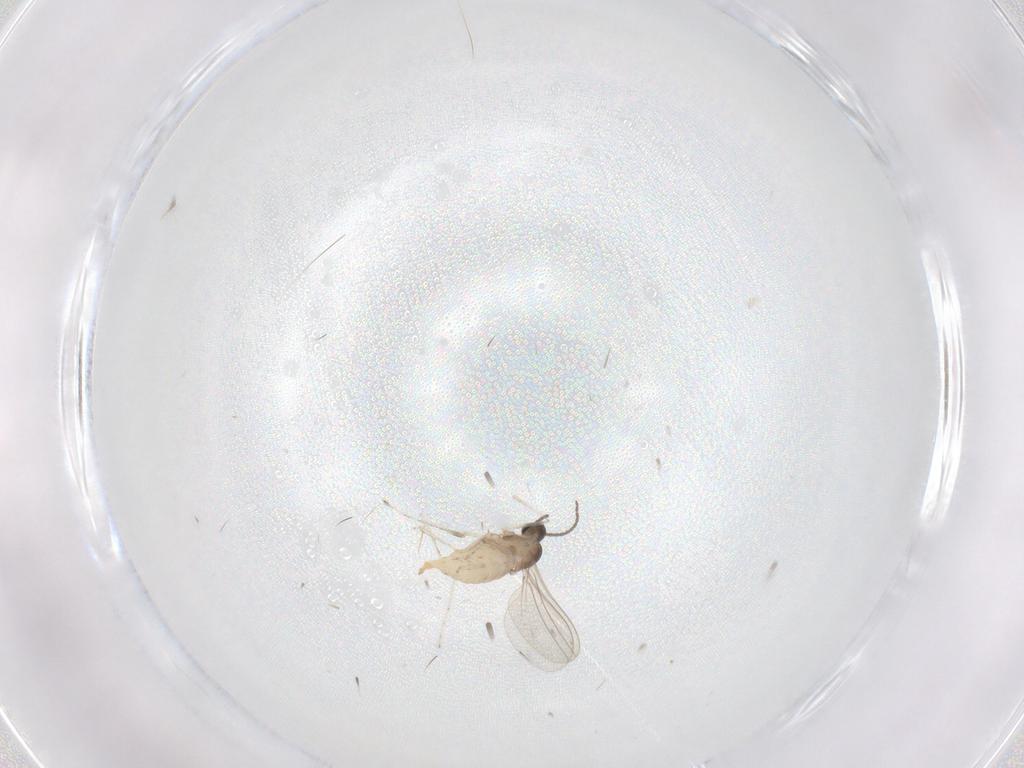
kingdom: Animalia
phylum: Arthropoda
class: Insecta
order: Diptera
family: Cecidomyiidae
